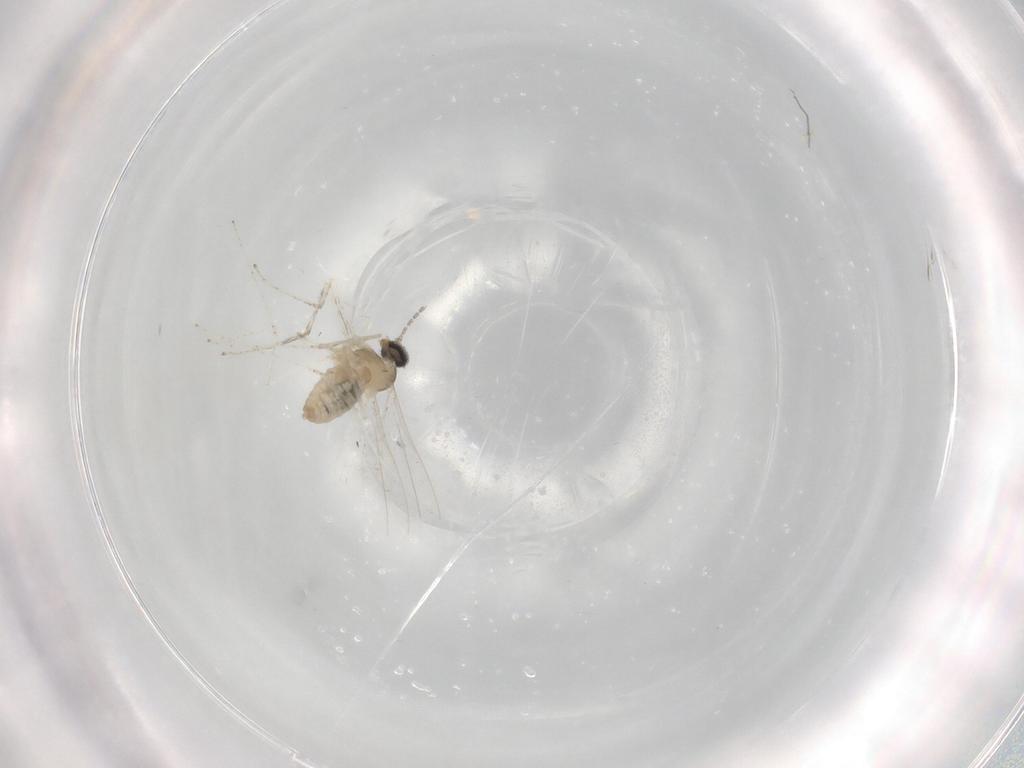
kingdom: Animalia
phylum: Arthropoda
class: Insecta
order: Diptera
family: Cecidomyiidae
